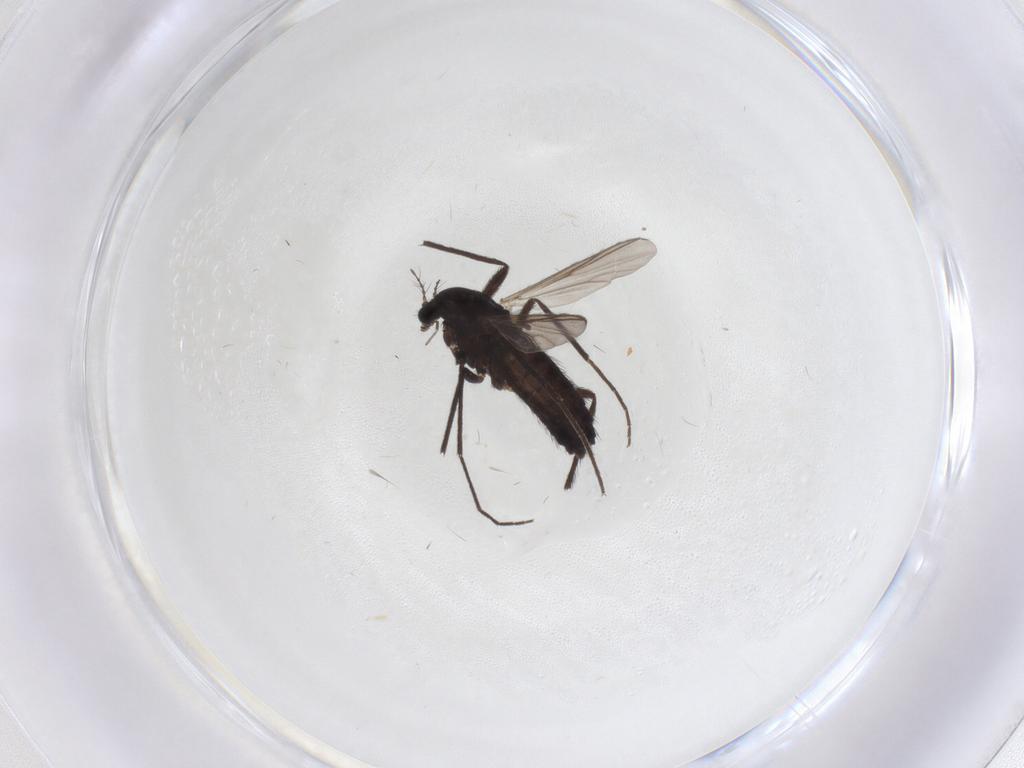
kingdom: Animalia
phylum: Arthropoda
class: Insecta
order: Diptera
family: Chironomidae
